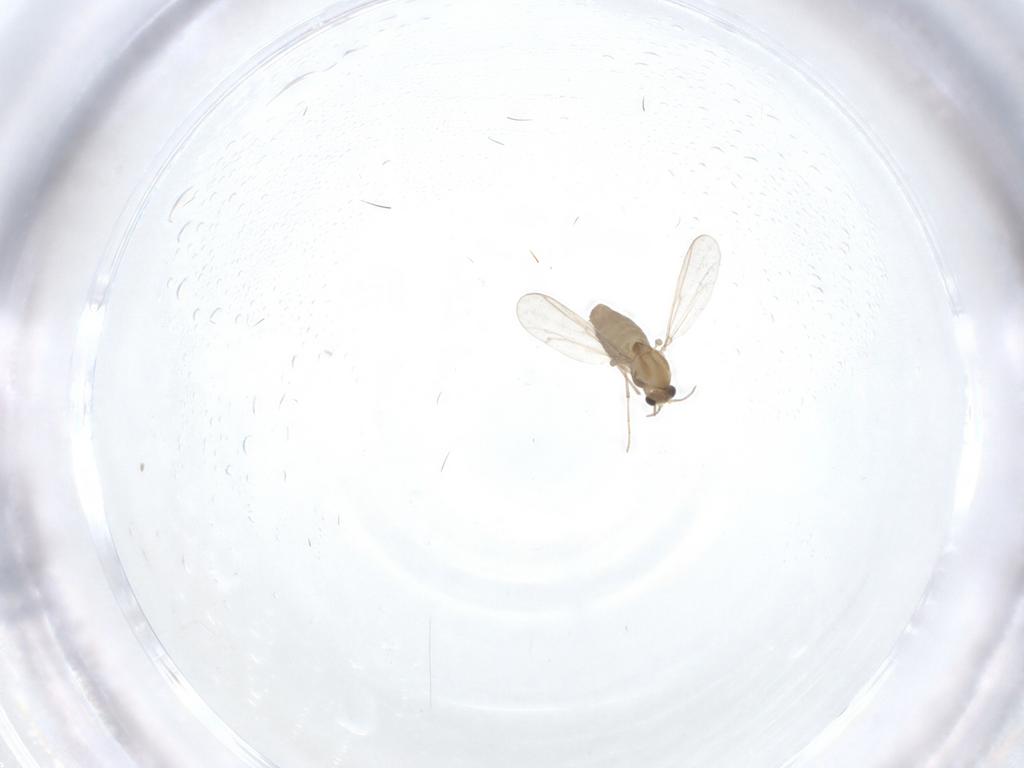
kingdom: Animalia
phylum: Arthropoda
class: Insecta
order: Diptera
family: Chironomidae
